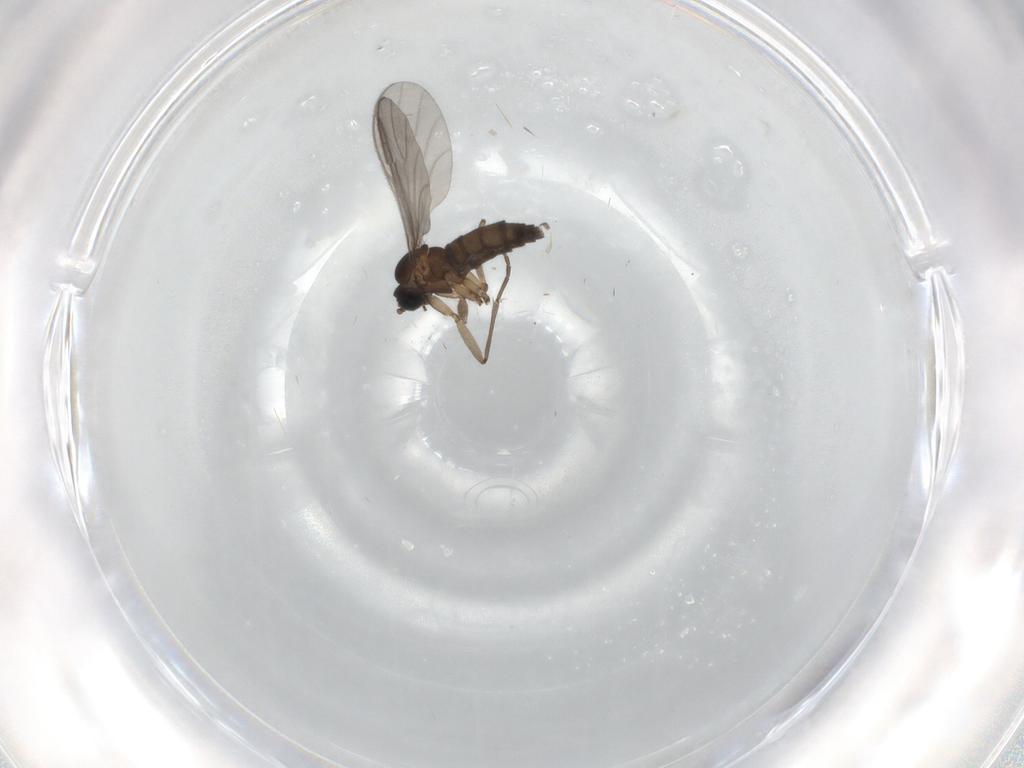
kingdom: Animalia
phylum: Arthropoda
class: Insecta
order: Diptera
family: Sciaridae
